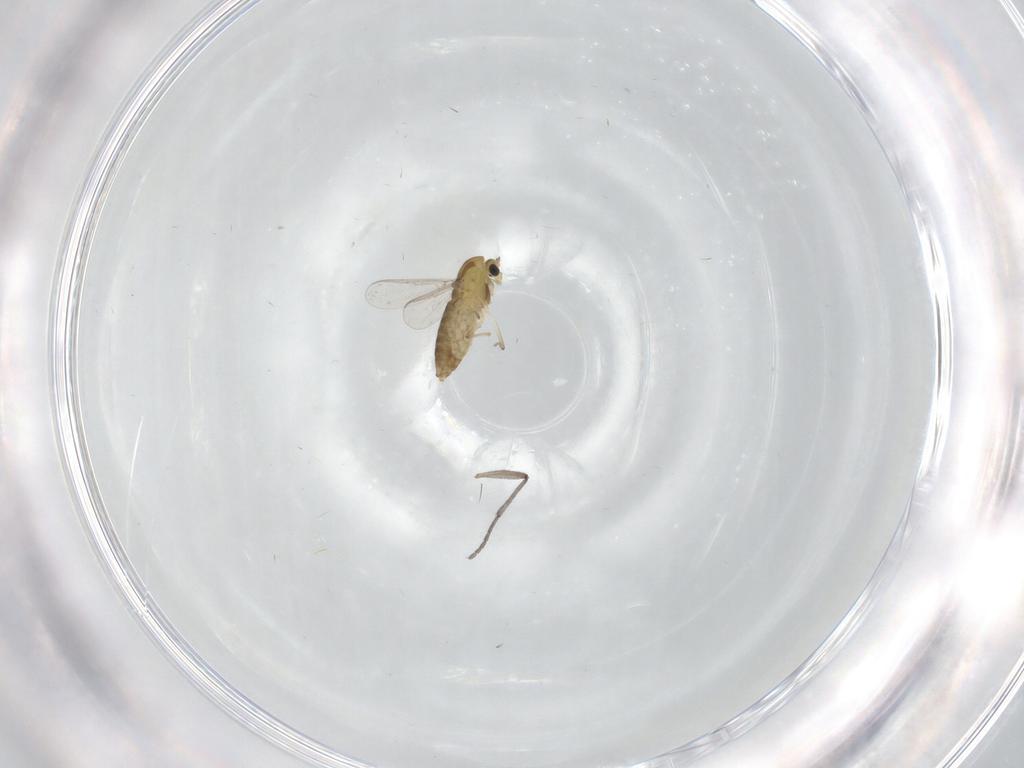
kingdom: Animalia
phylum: Arthropoda
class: Insecta
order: Diptera
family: Chironomidae
